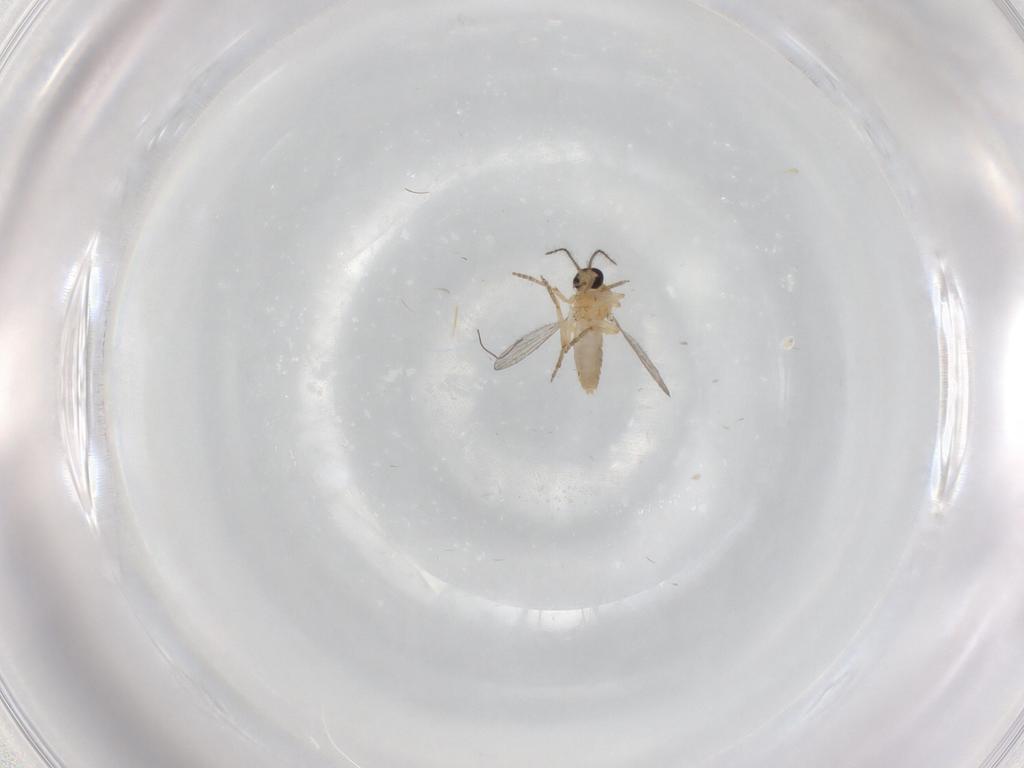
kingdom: Animalia
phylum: Arthropoda
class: Insecta
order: Diptera
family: Ceratopogonidae
